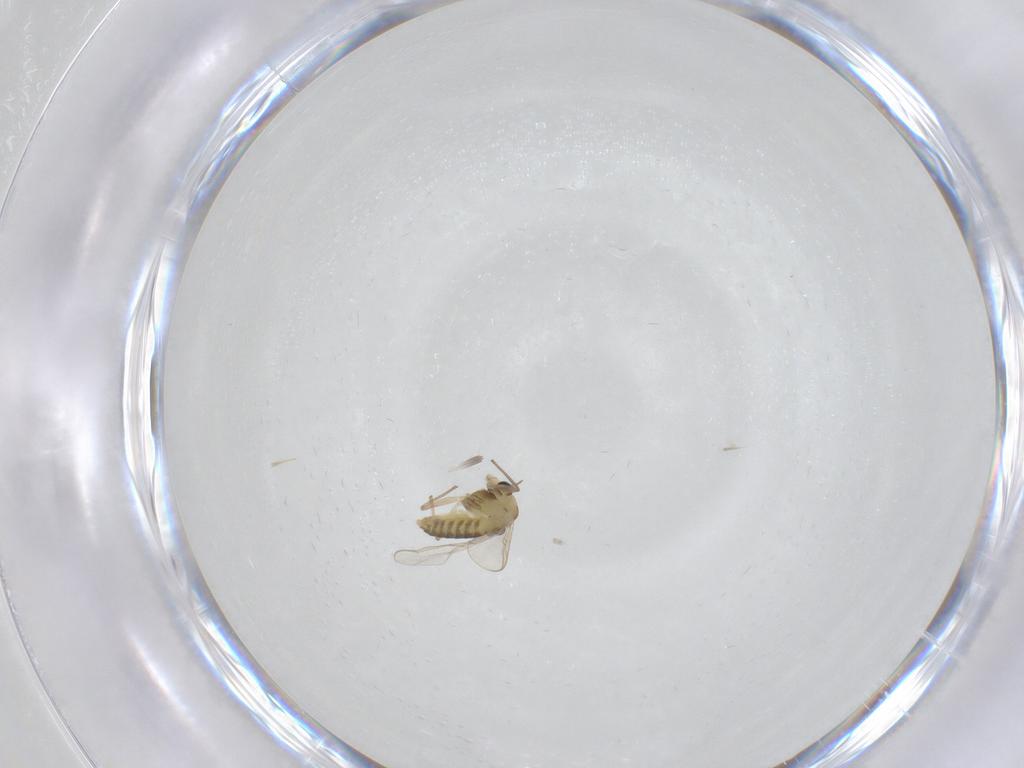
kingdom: Animalia
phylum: Arthropoda
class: Insecta
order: Diptera
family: Chironomidae
